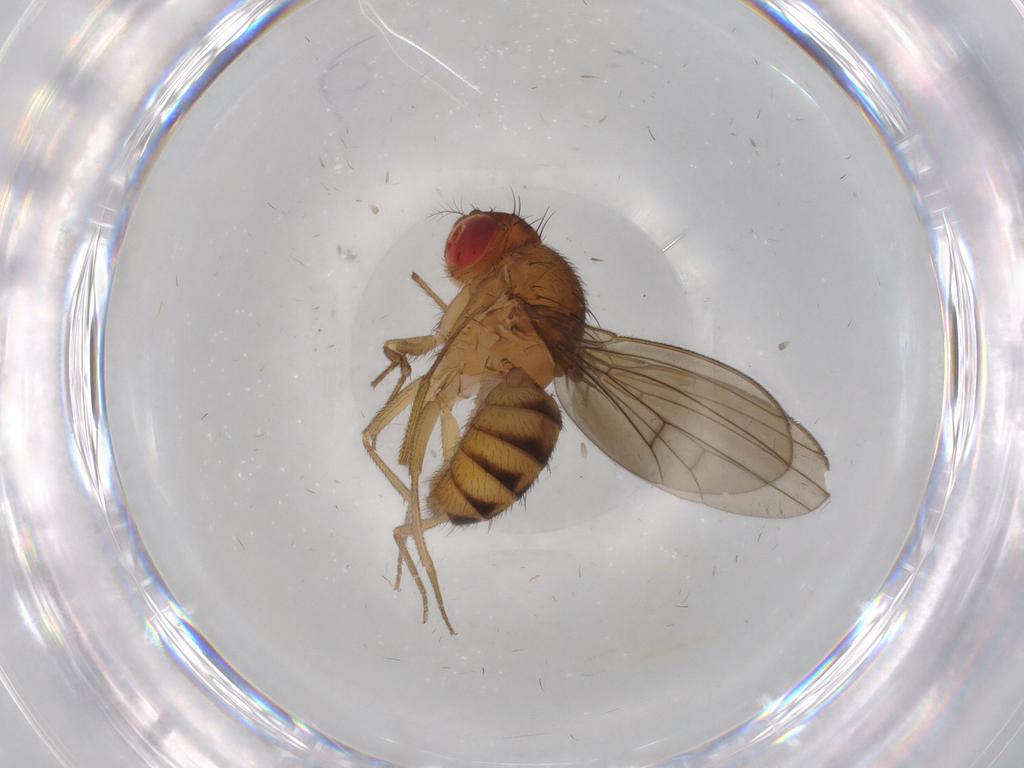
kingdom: Animalia
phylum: Arthropoda
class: Insecta
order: Diptera
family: Drosophilidae
